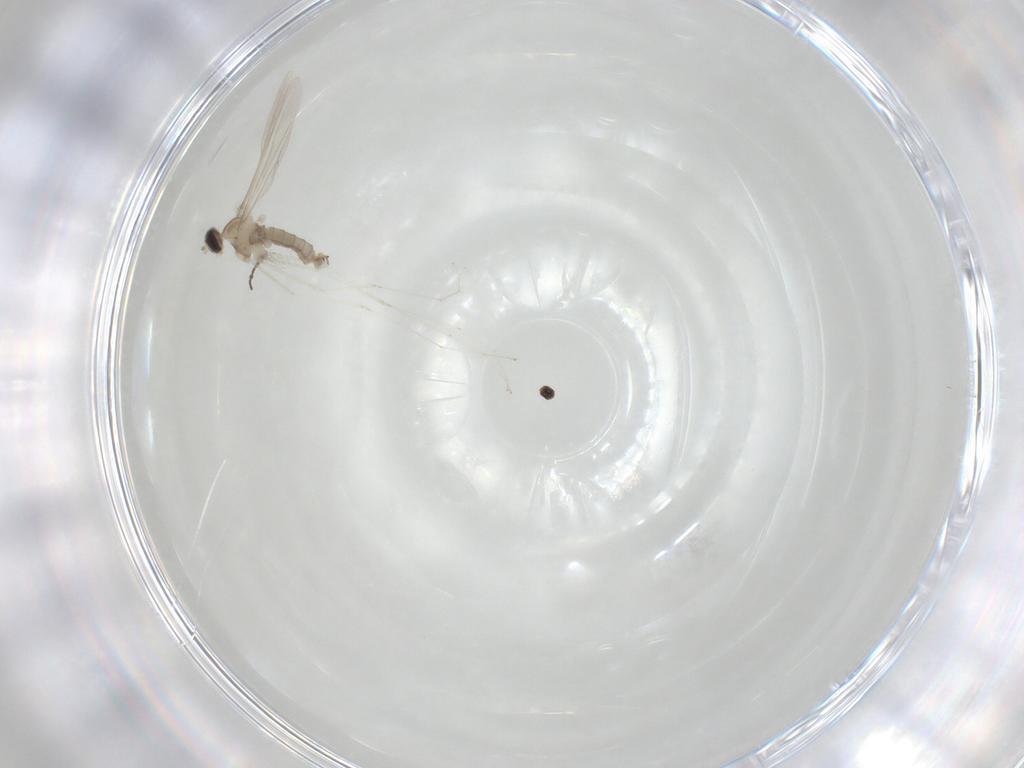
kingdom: Animalia
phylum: Arthropoda
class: Insecta
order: Diptera
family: Cecidomyiidae
